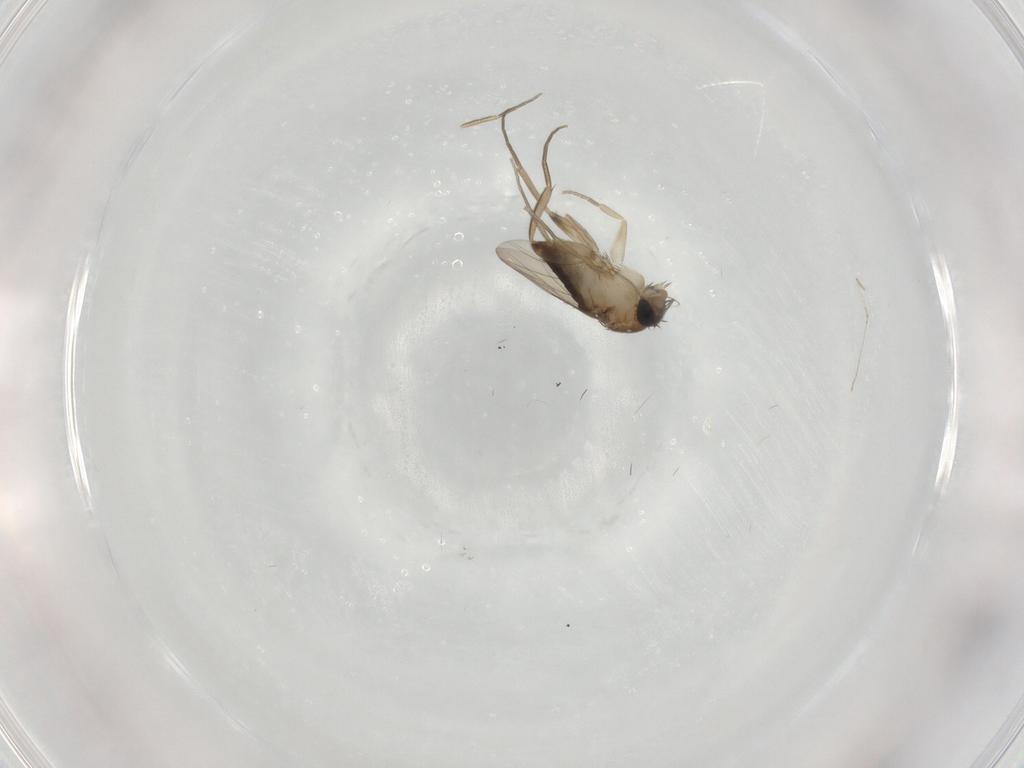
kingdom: Animalia
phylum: Arthropoda
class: Insecta
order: Diptera
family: Phoridae
